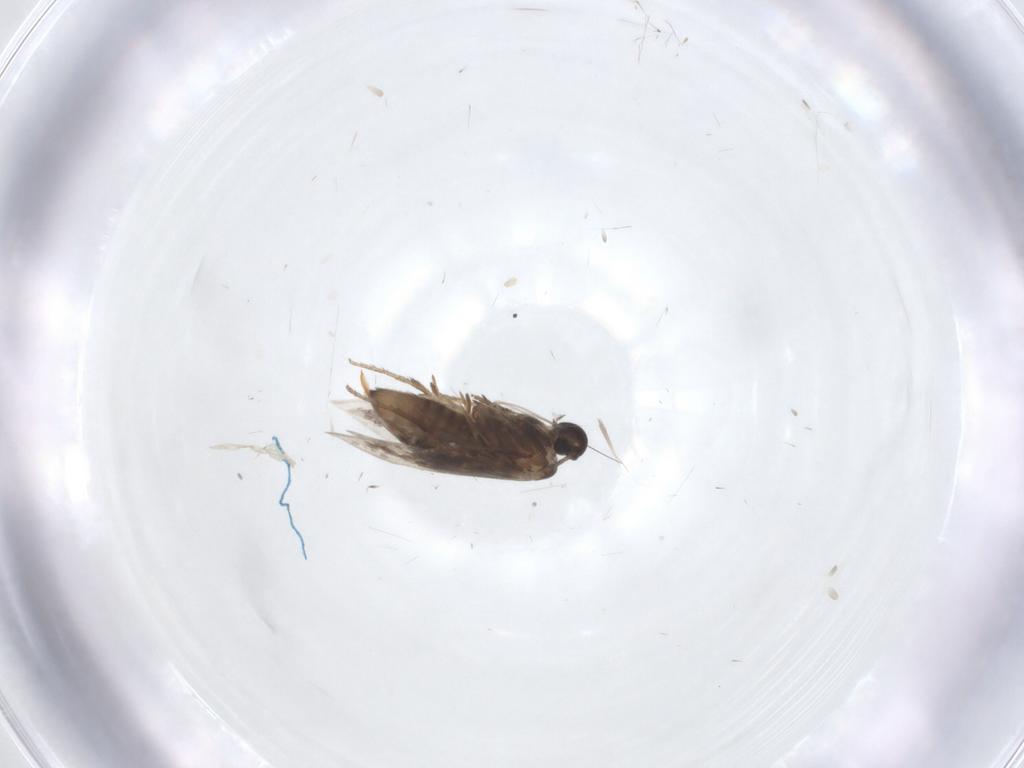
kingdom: Animalia
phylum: Arthropoda
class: Insecta
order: Lepidoptera
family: Heliozelidae
